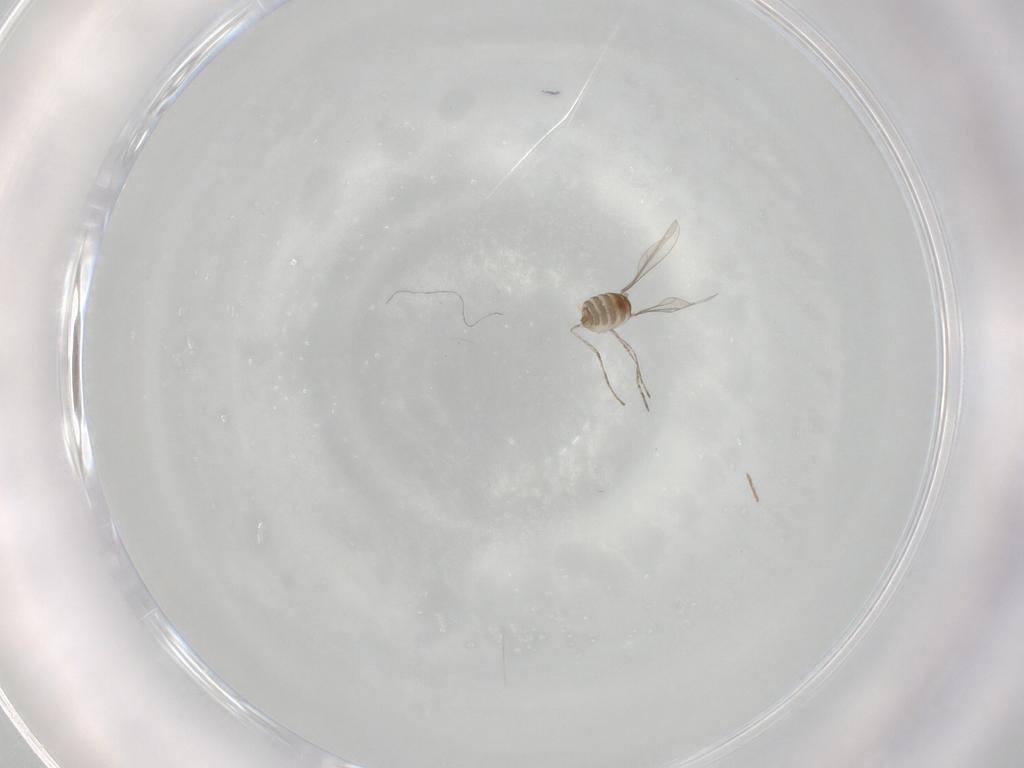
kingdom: Animalia
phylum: Arthropoda
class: Insecta
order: Diptera
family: Cecidomyiidae
